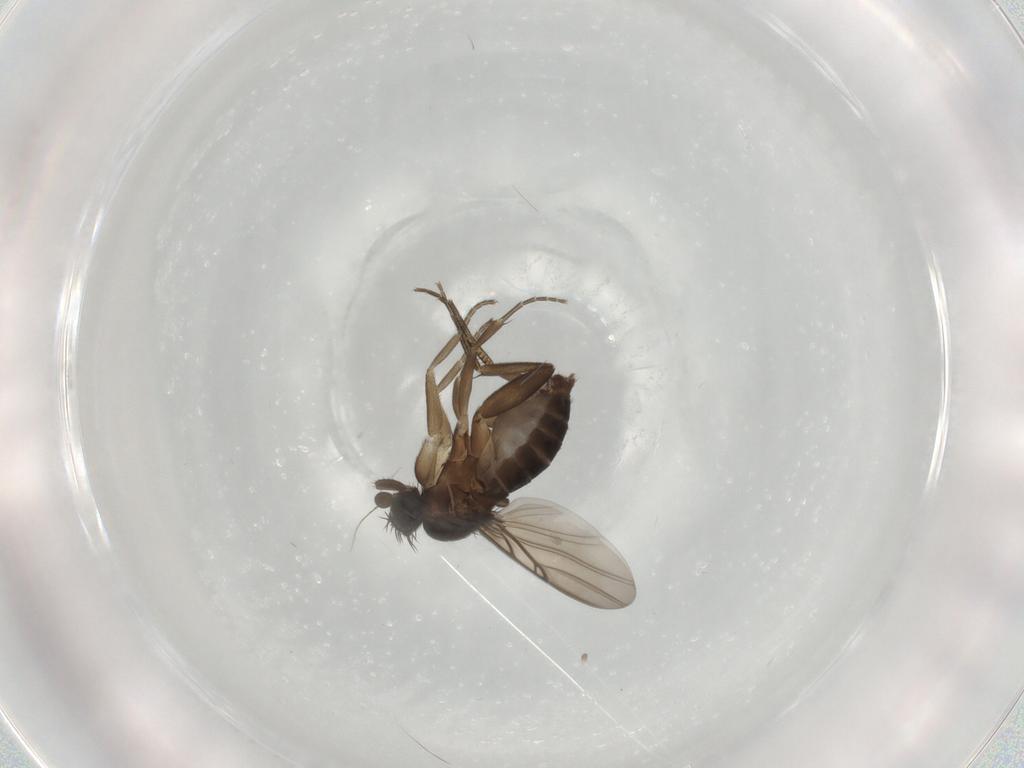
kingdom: Animalia
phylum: Arthropoda
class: Insecta
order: Diptera
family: Phoridae
